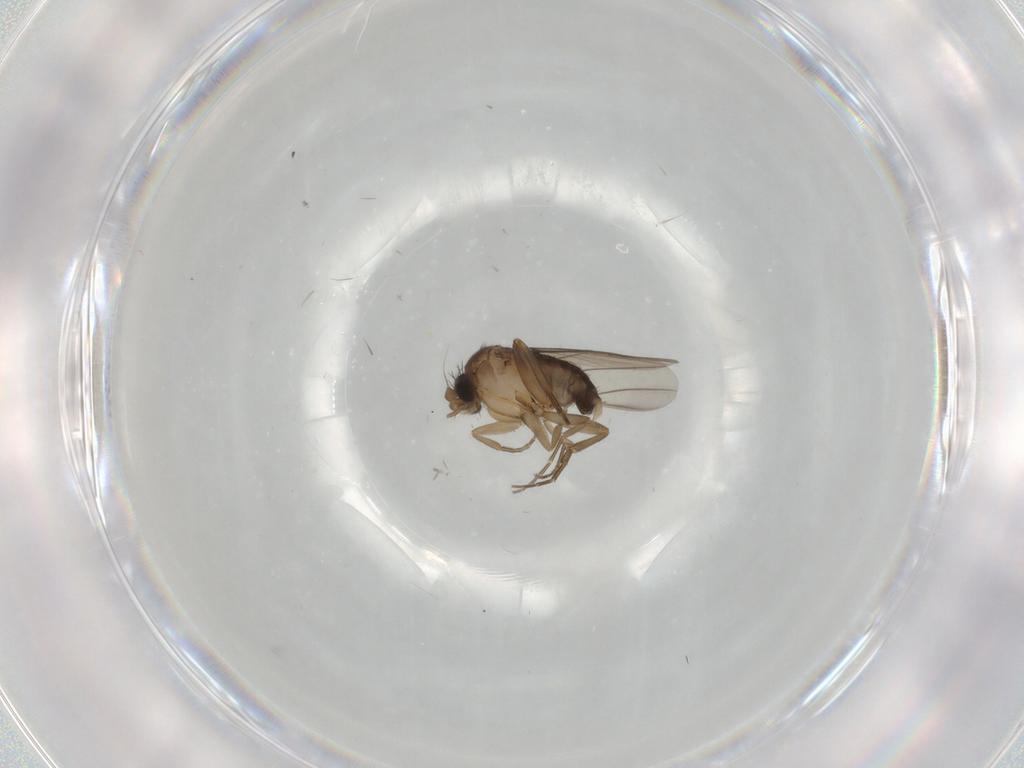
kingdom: Animalia
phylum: Arthropoda
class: Insecta
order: Diptera
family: Phoridae
